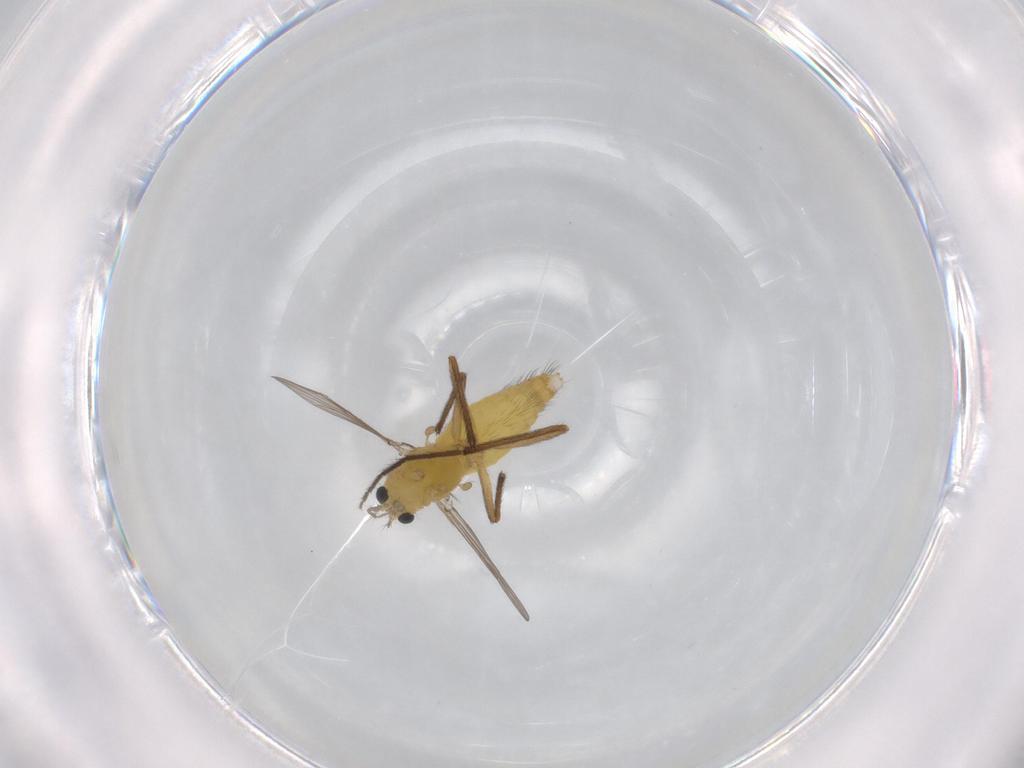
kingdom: Animalia
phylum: Arthropoda
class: Insecta
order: Diptera
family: Chironomidae
